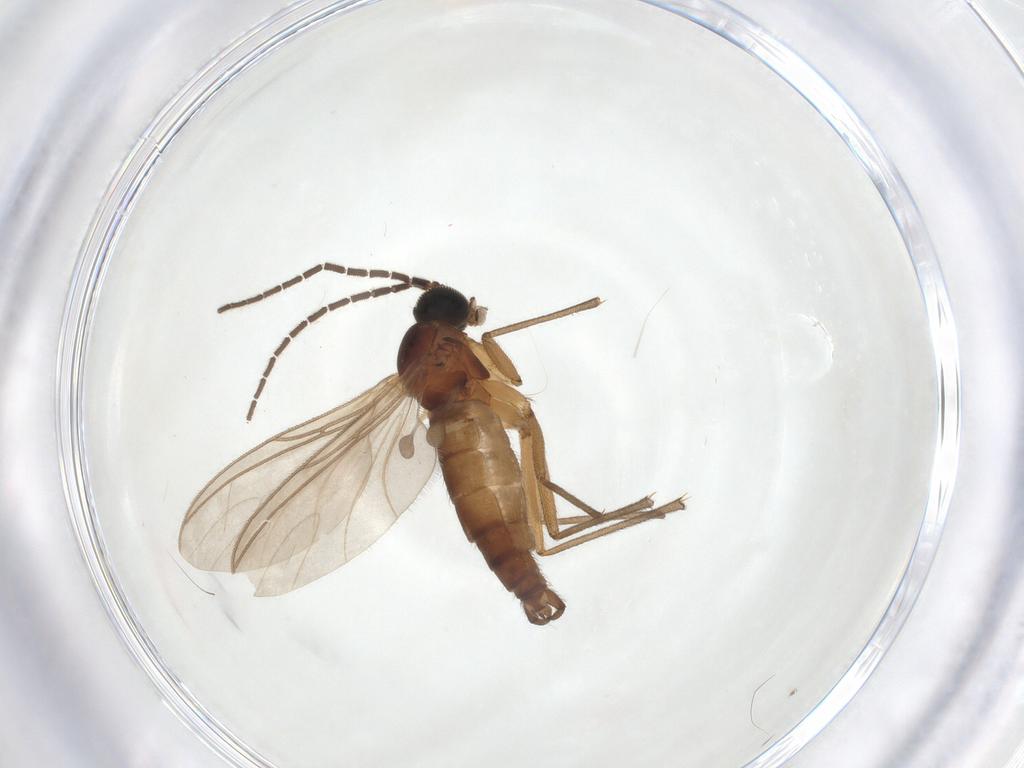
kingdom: Animalia
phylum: Arthropoda
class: Insecta
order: Diptera
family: Sciaridae
